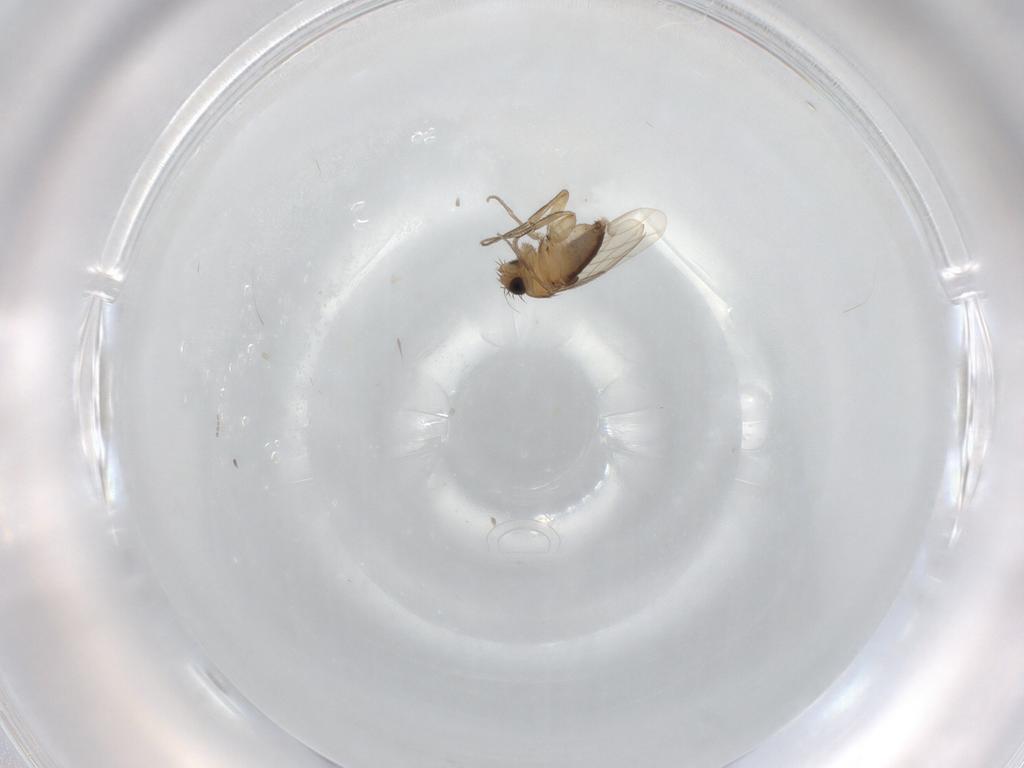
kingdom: Animalia
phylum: Arthropoda
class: Insecta
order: Diptera
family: Phoridae
